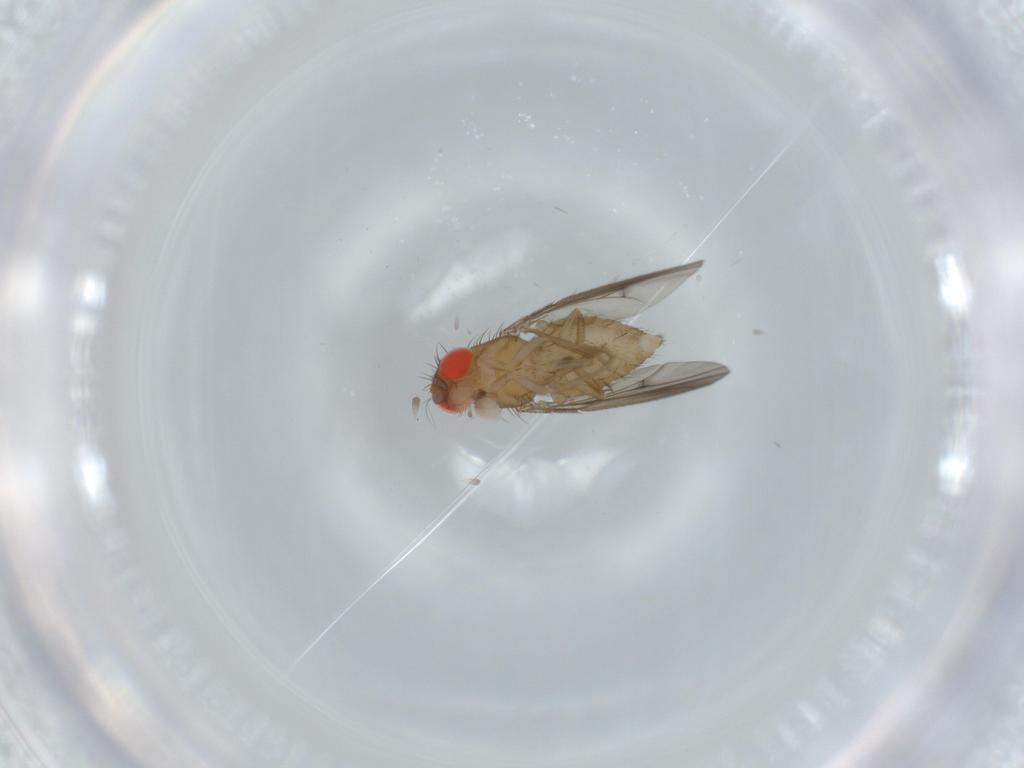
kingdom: Animalia
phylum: Arthropoda
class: Insecta
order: Diptera
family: Drosophilidae
